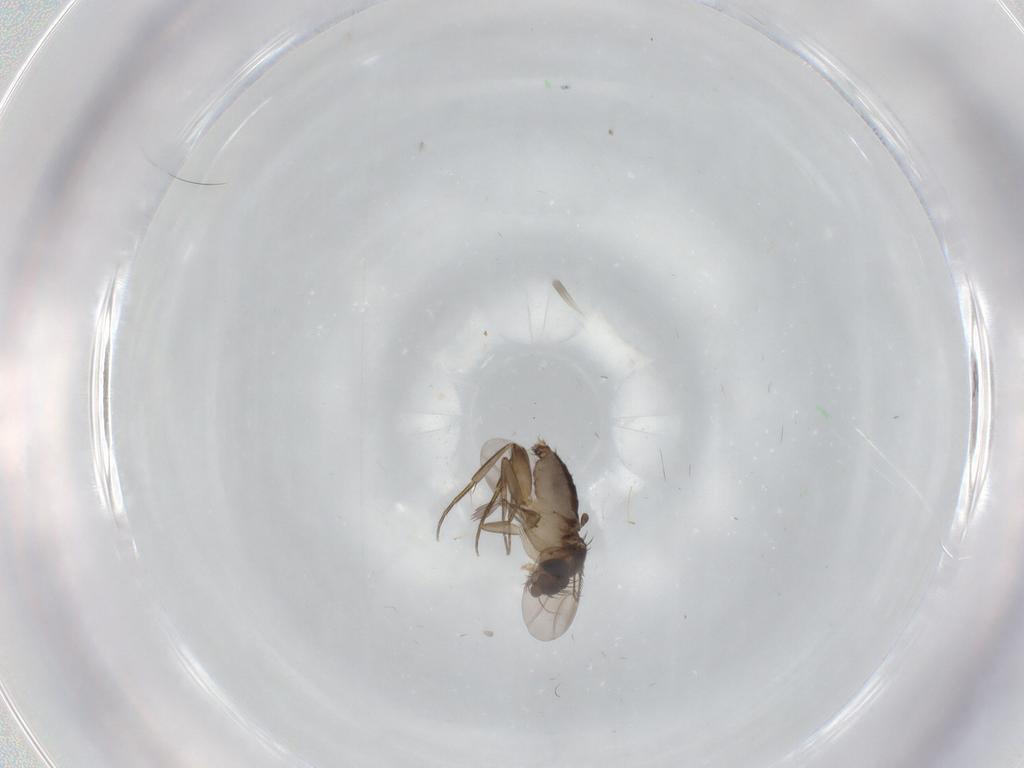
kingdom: Animalia
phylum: Arthropoda
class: Insecta
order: Diptera
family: Phoridae
